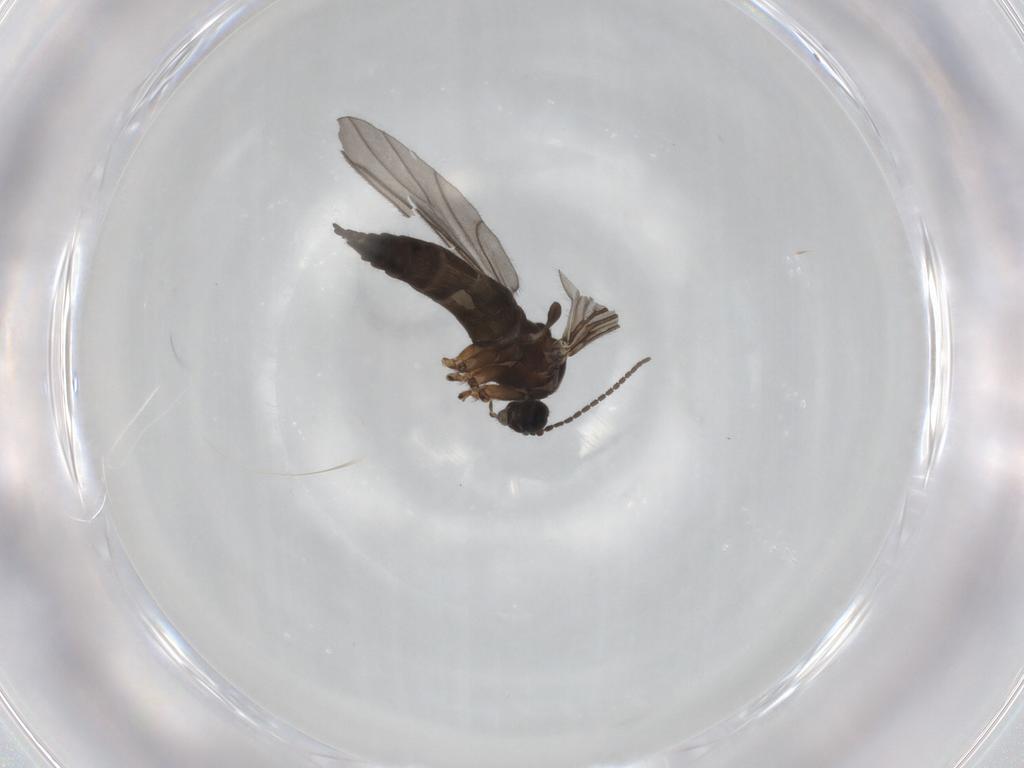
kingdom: Animalia
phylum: Arthropoda
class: Insecta
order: Diptera
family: Sciaridae
